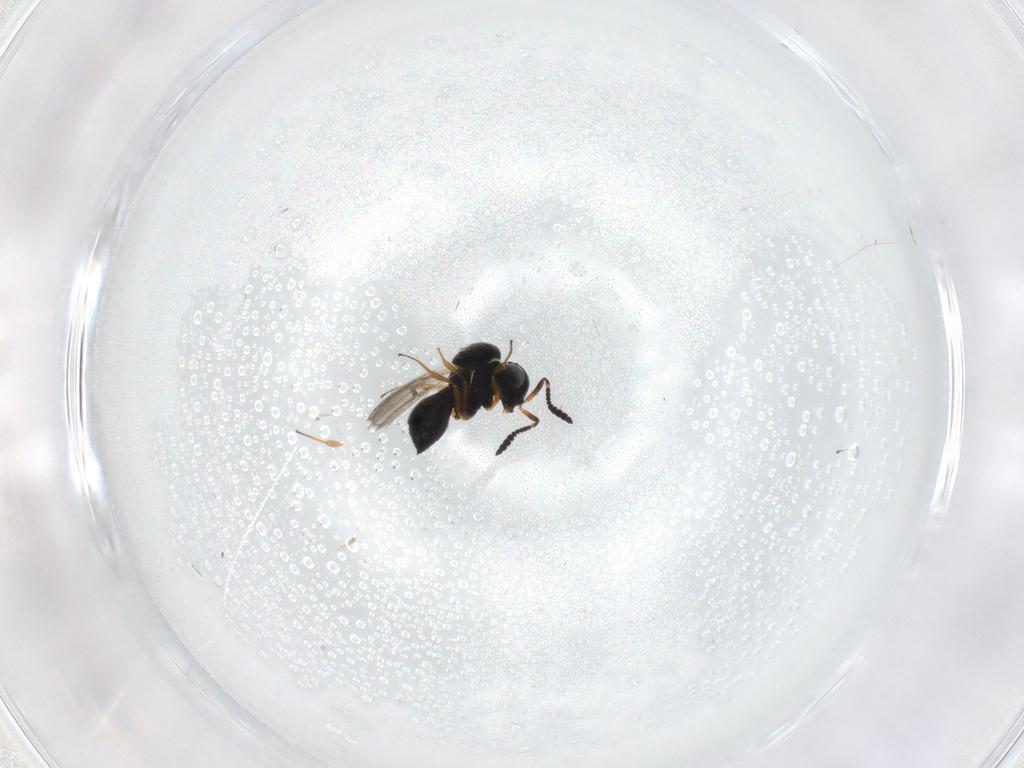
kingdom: Animalia
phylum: Arthropoda
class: Insecta
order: Hymenoptera
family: Scelionidae
